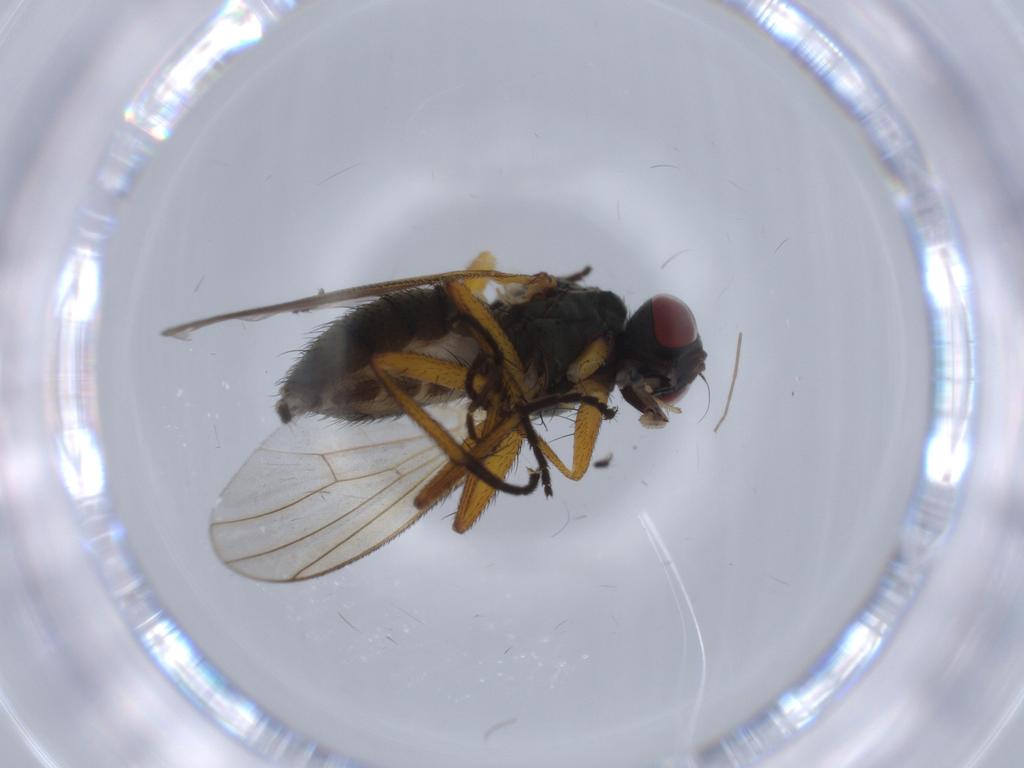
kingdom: Animalia
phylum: Arthropoda
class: Insecta
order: Diptera
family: Muscidae
